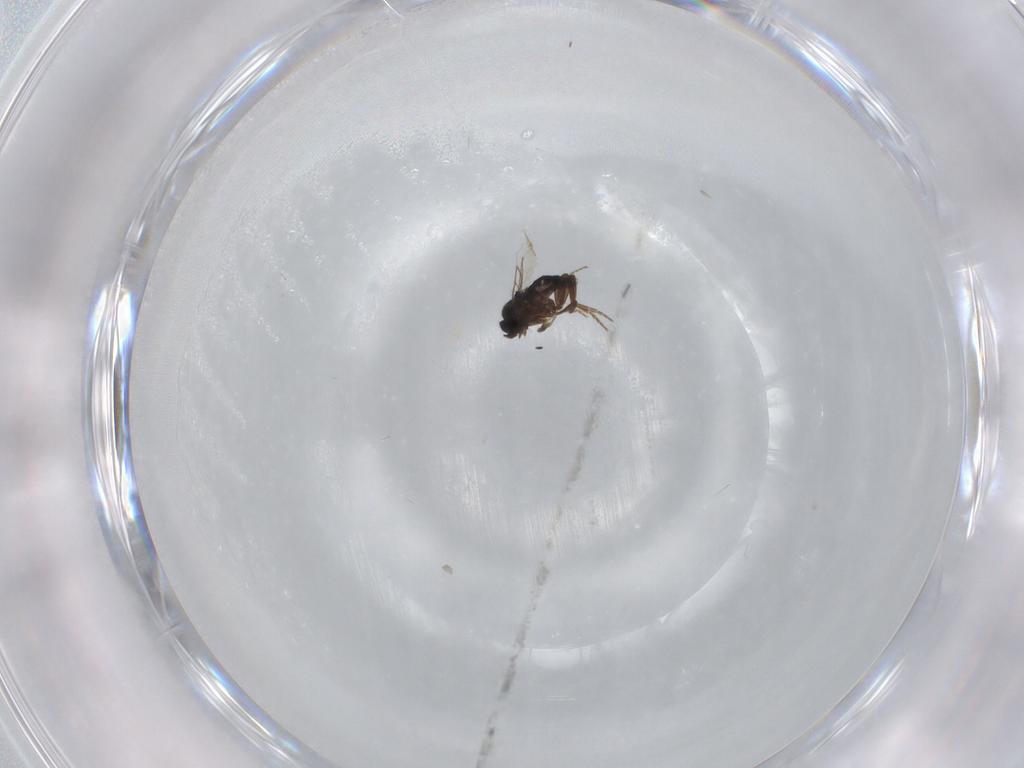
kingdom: Animalia
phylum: Arthropoda
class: Insecta
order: Diptera
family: Phoridae
